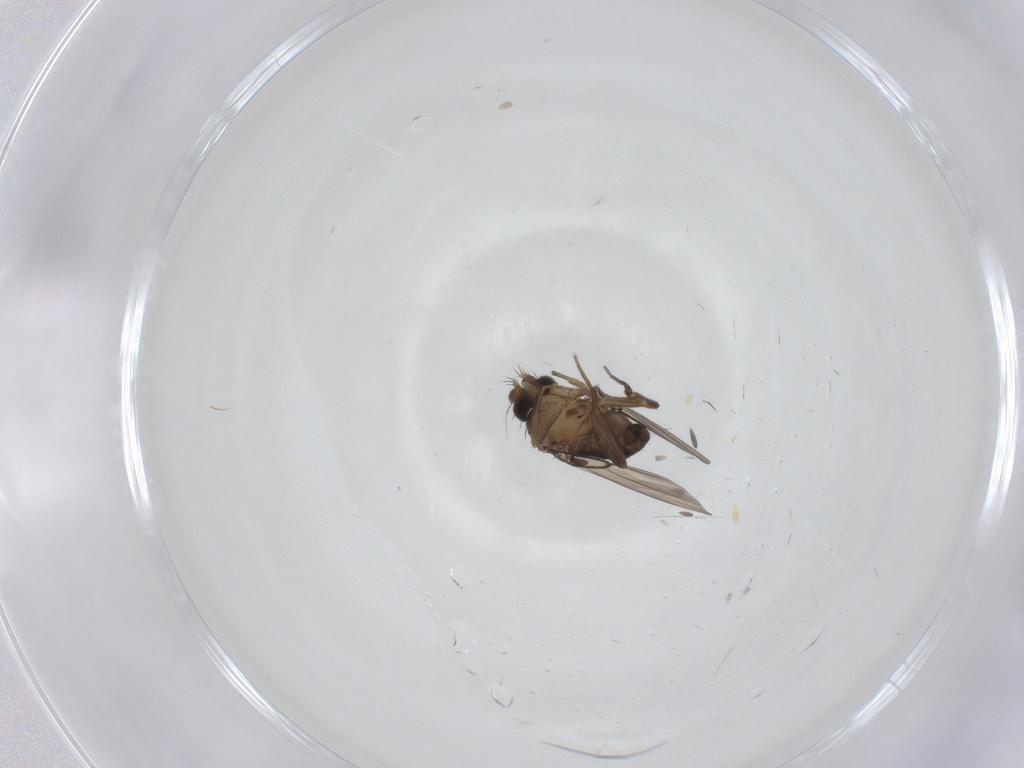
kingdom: Animalia
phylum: Arthropoda
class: Insecta
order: Diptera
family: Phoridae
